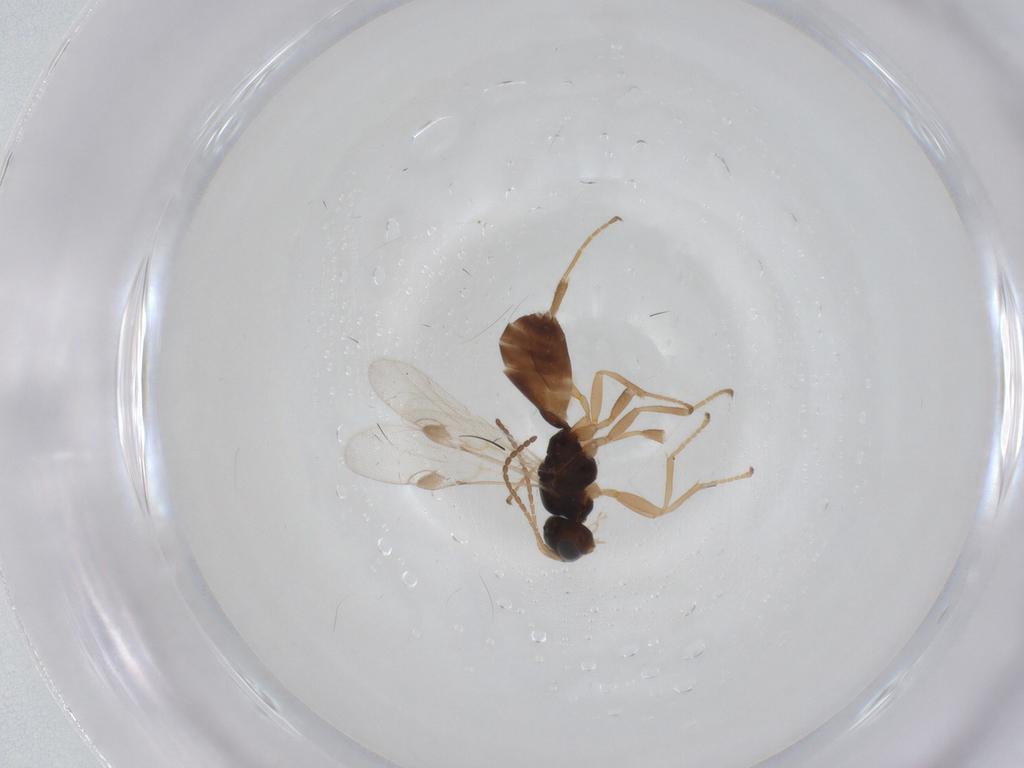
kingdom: Animalia
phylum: Arthropoda
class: Insecta
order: Hymenoptera
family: Braconidae
